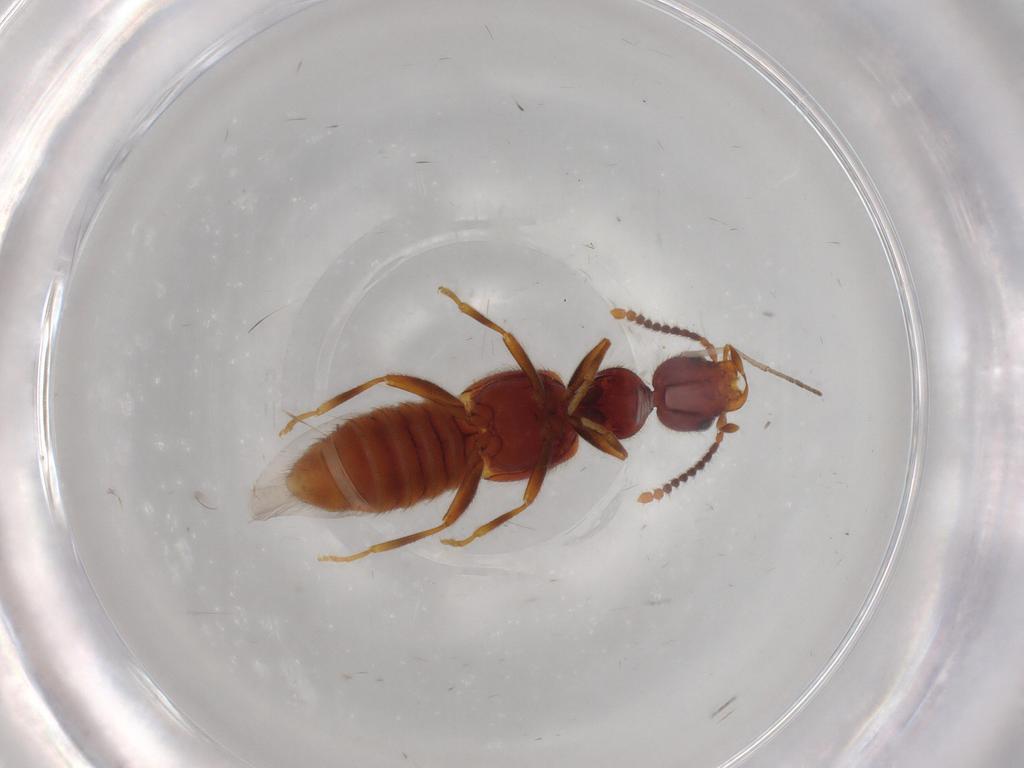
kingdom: Animalia
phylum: Arthropoda
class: Insecta
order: Coleoptera
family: Staphylinidae
